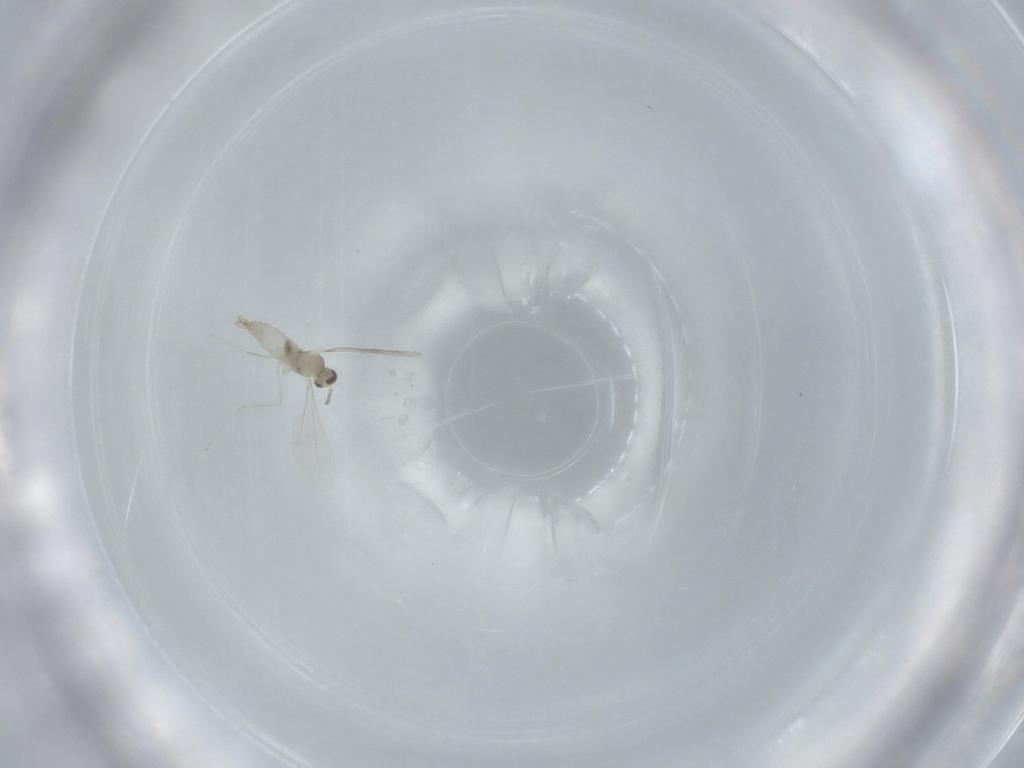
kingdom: Animalia
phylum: Arthropoda
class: Insecta
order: Diptera
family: Cecidomyiidae
